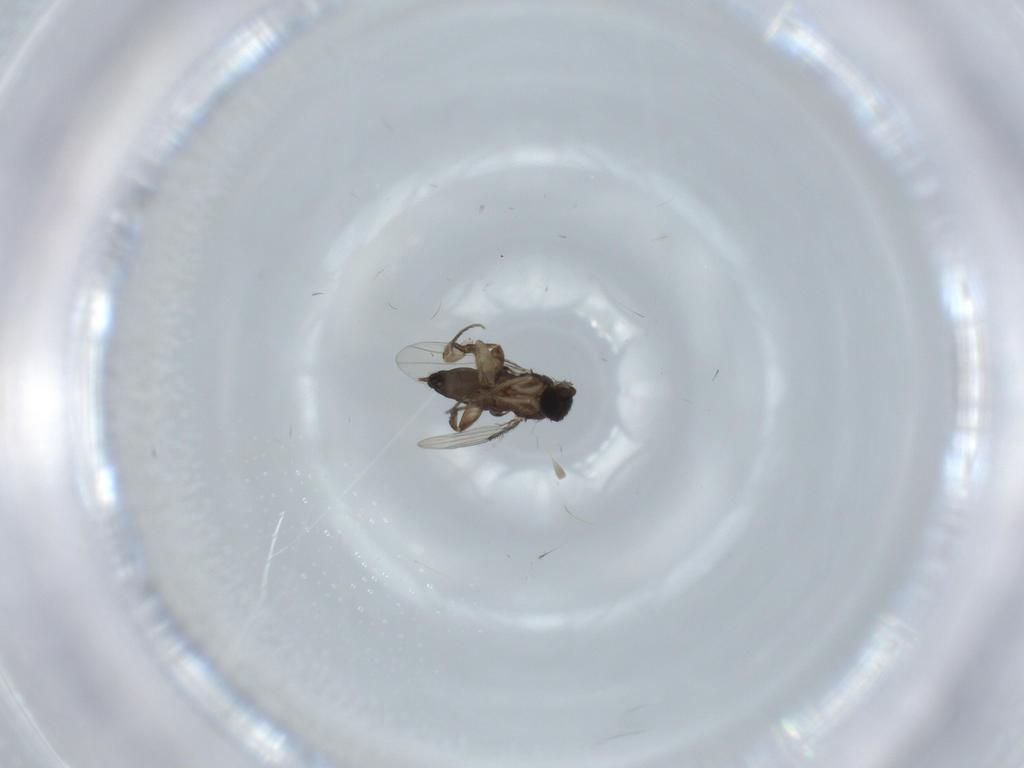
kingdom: Animalia
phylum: Arthropoda
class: Insecta
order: Diptera
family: Phoridae
